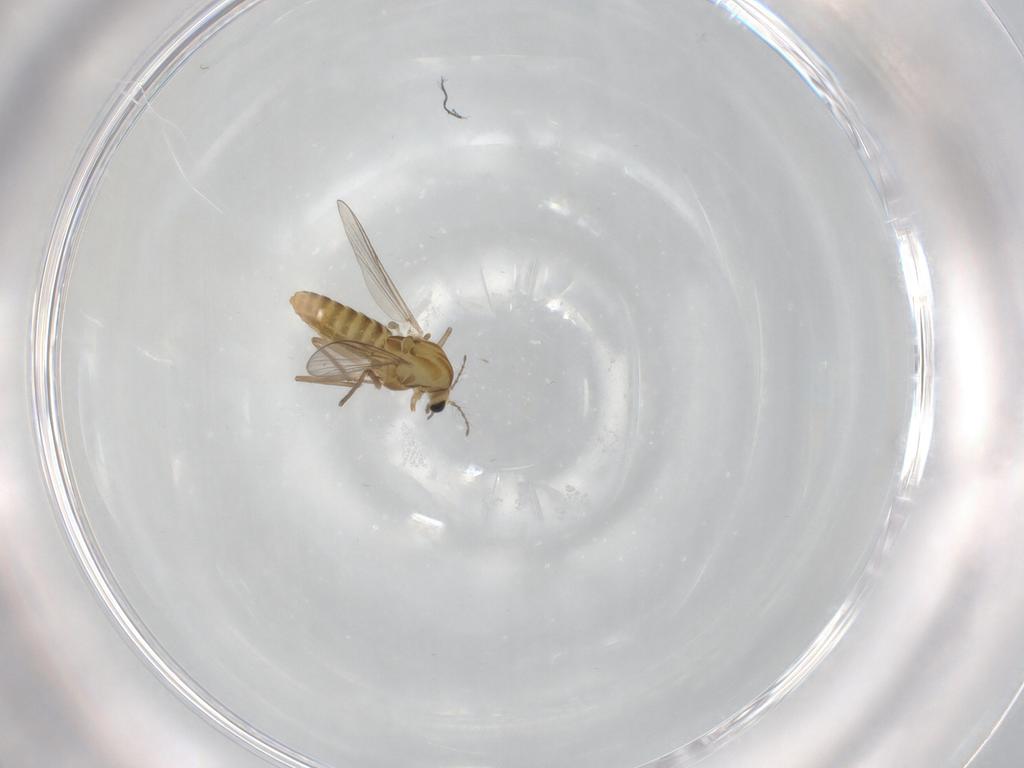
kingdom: Animalia
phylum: Arthropoda
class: Insecta
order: Diptera
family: Chironomidae
